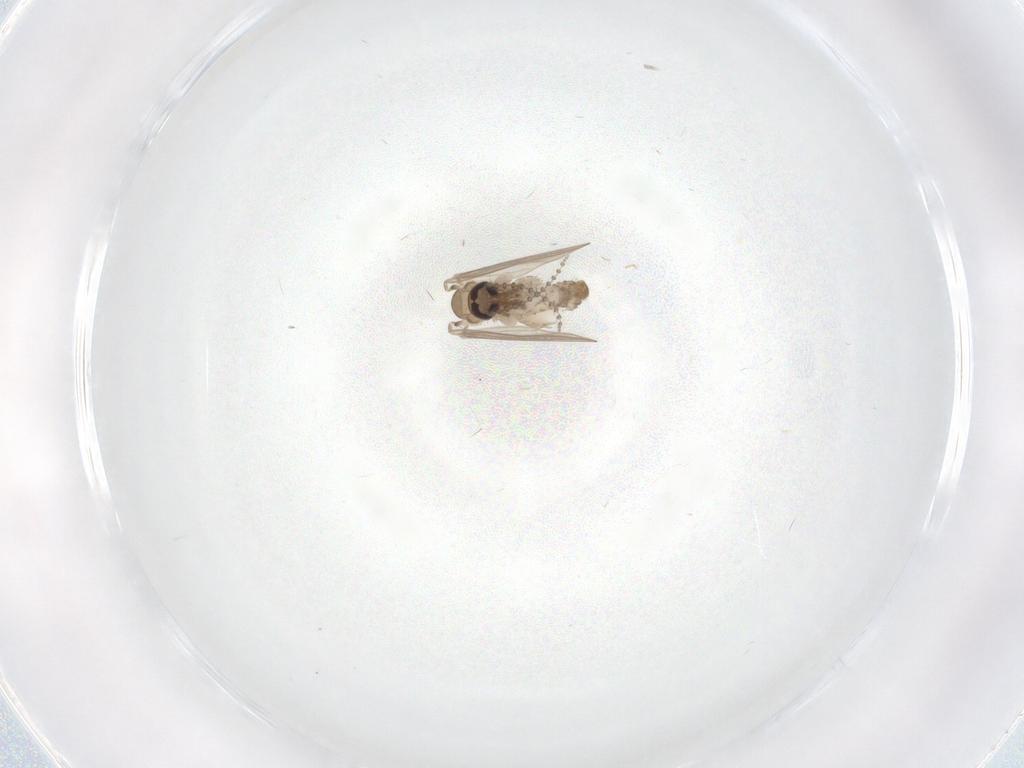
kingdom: Animalia
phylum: Arthropoda
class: Insecta
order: Diptera
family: Psychodidae
